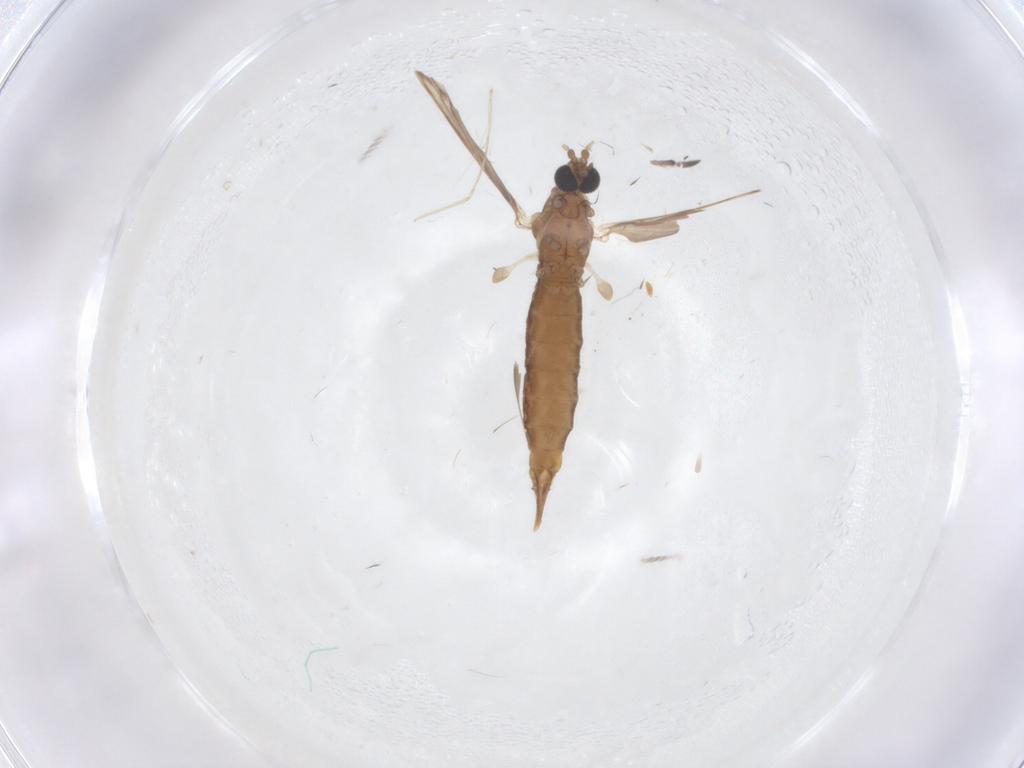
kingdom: Animalia
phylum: Arthropoda
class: Insecta
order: Diptera
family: Limoniidae
